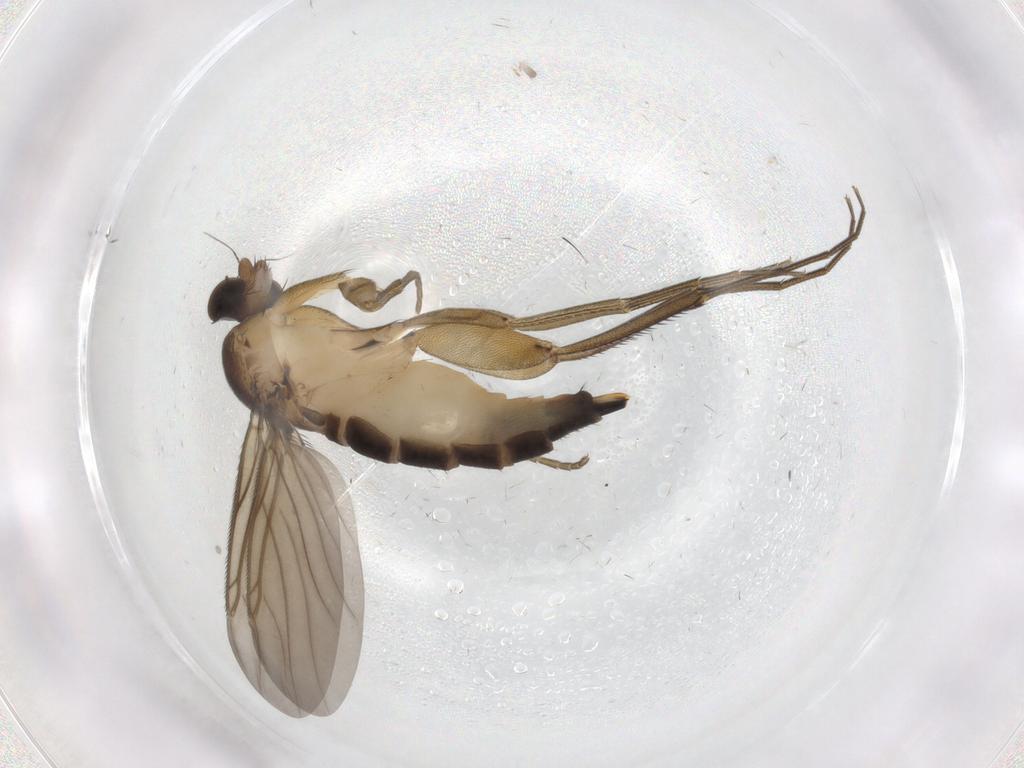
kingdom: Animalia
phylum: Arthropoda
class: Insecta
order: Diptera
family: Phoridae
